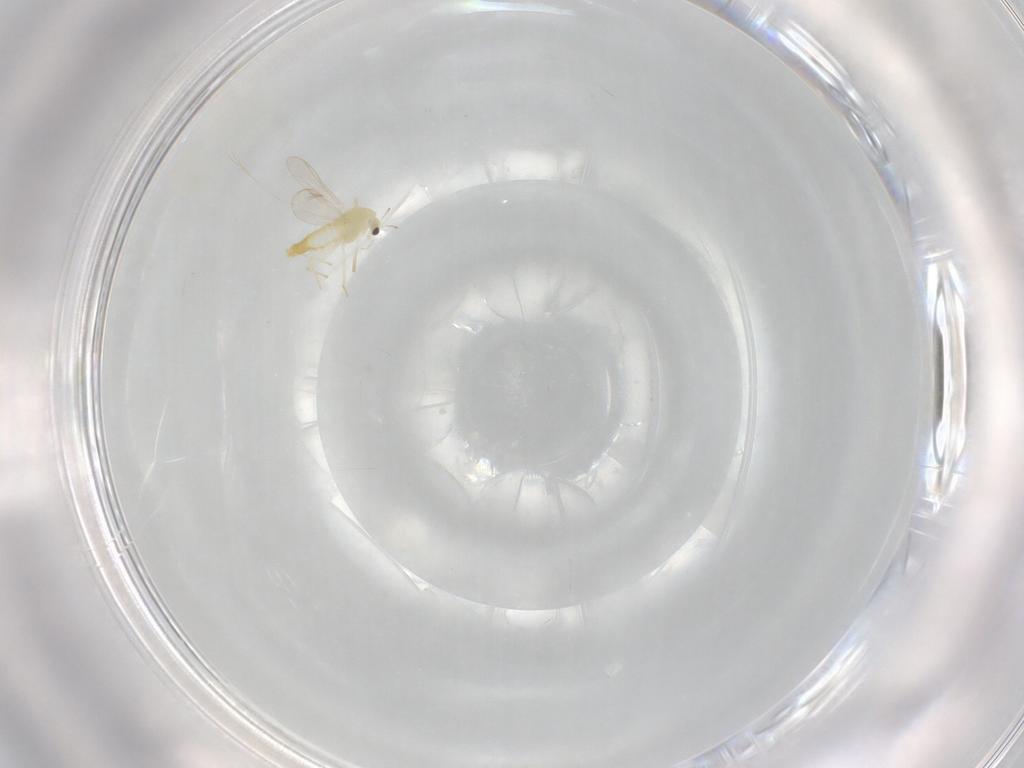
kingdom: Animalia
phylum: Arthropoda
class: Insecta
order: Diptera
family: Chironomidae
